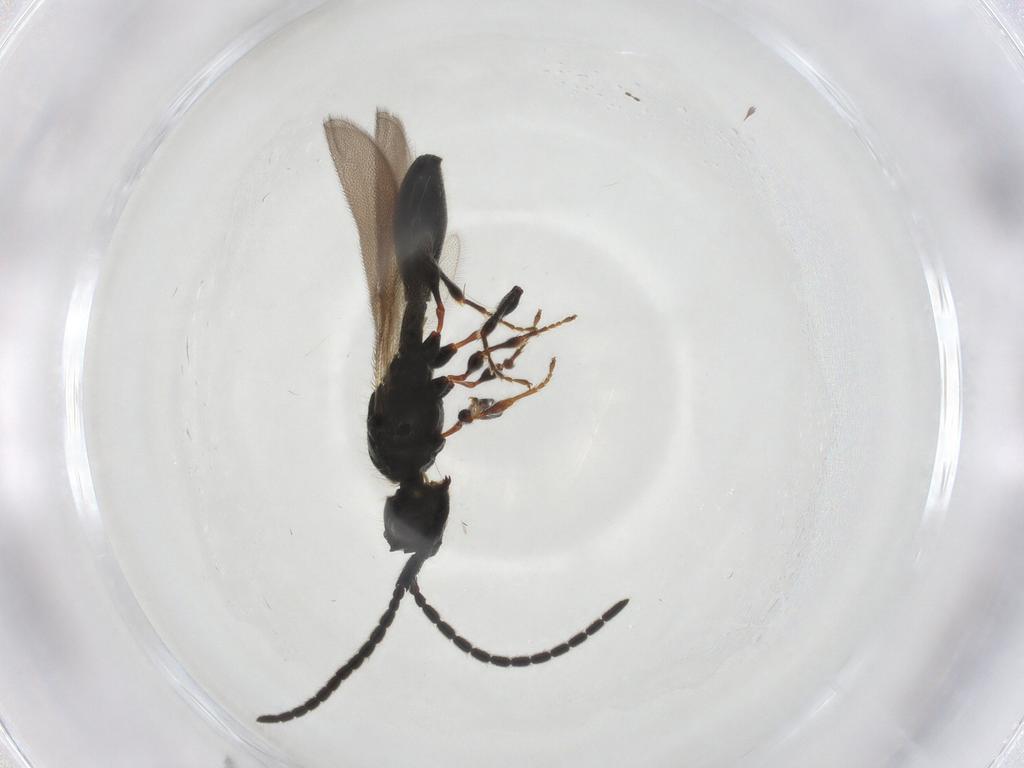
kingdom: Animalia
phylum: Arthropoda
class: Insecta
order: Hymenoptera
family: Diapriidae
